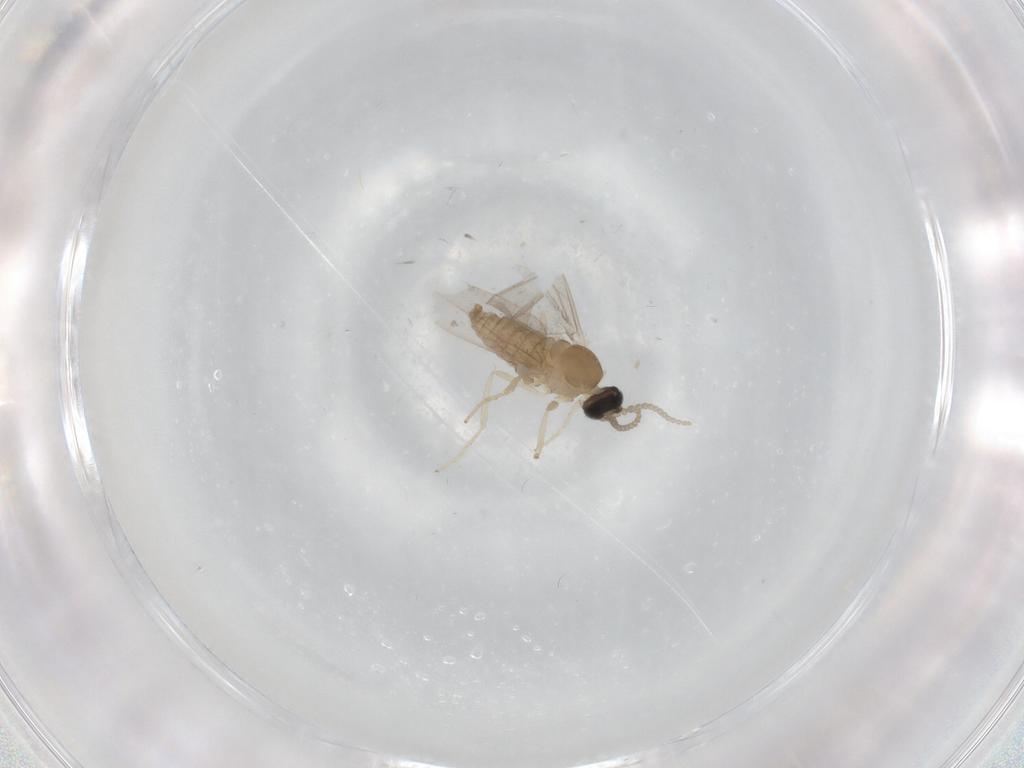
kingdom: Animalia
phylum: Arthropoda
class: Insecta
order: Diptera
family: Cecidomyiidae
